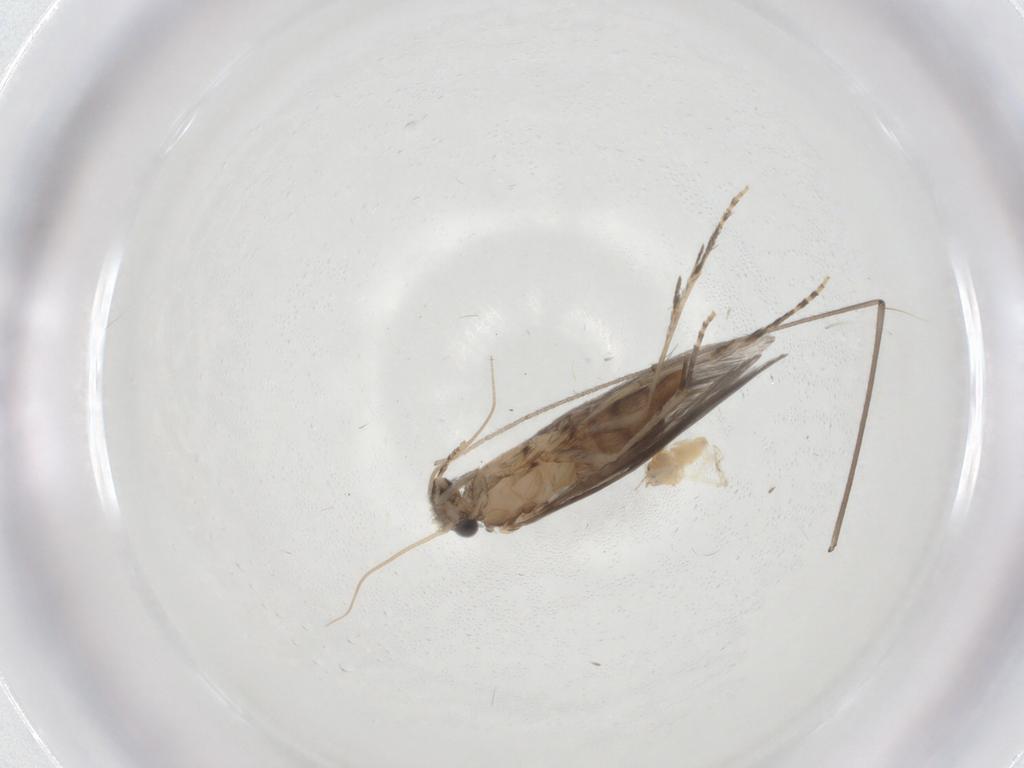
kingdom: Animalia
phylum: Arthropoda
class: Insecta
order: Trichoptera
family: Hydroptilidae
